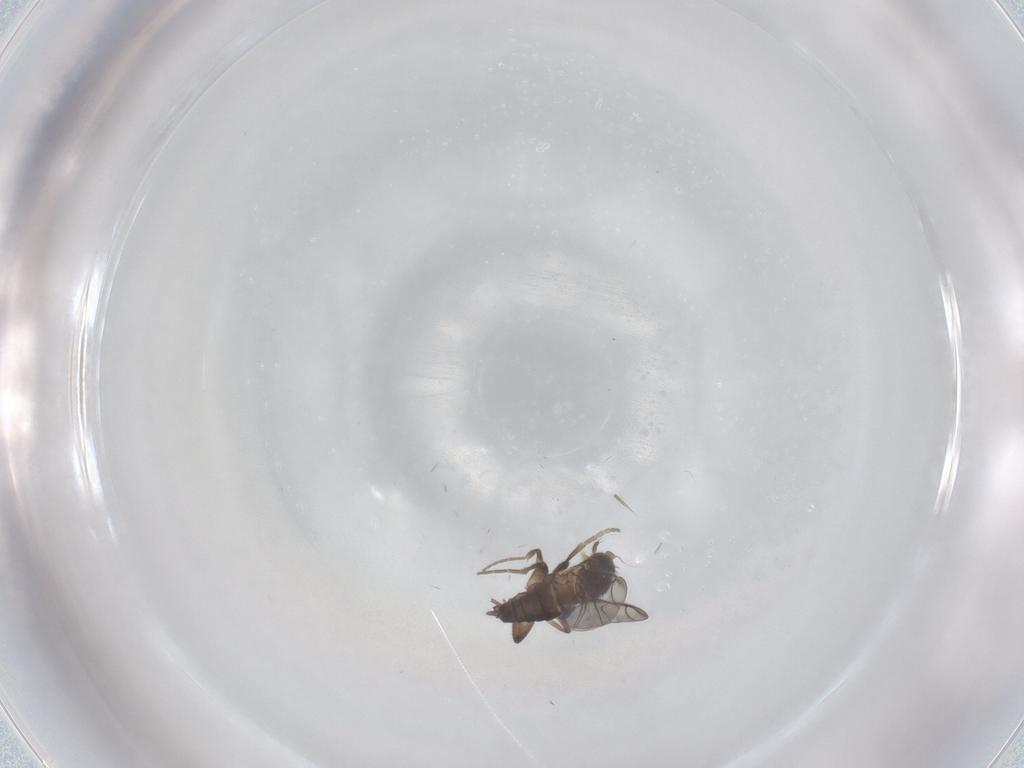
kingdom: Animalia
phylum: Arthropoda
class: Insecta
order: Diptera
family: Phoridae
